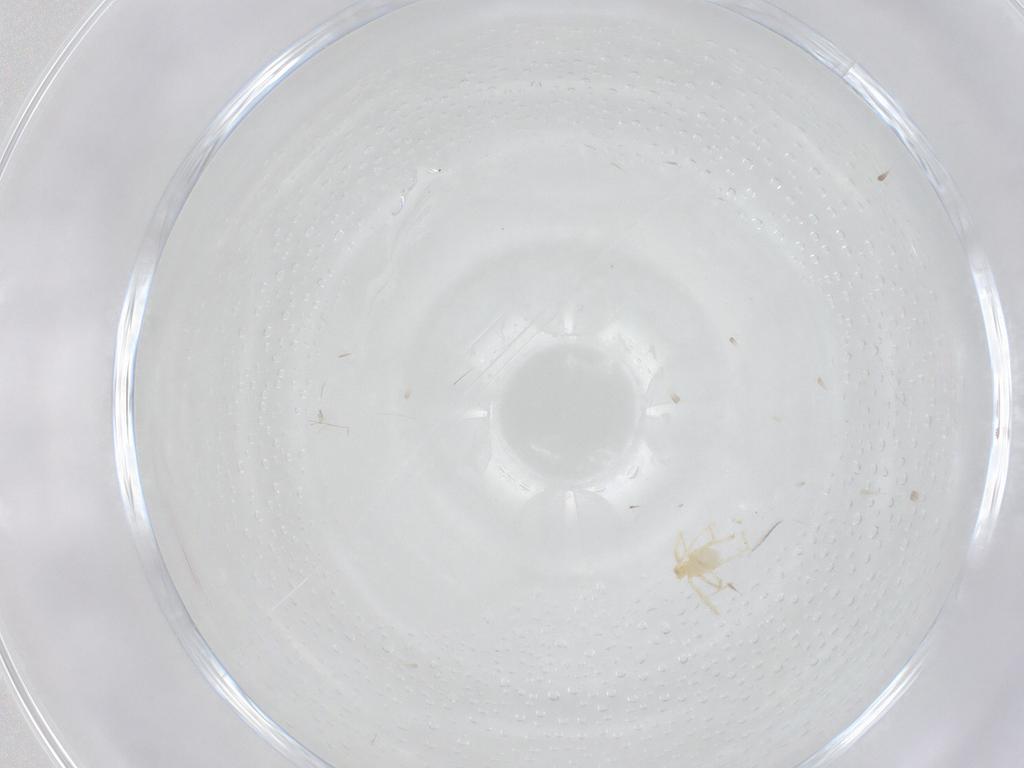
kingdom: Animalia
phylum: Arthropoda
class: Arachnida
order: Trombidiformes
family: Erythraeidae
